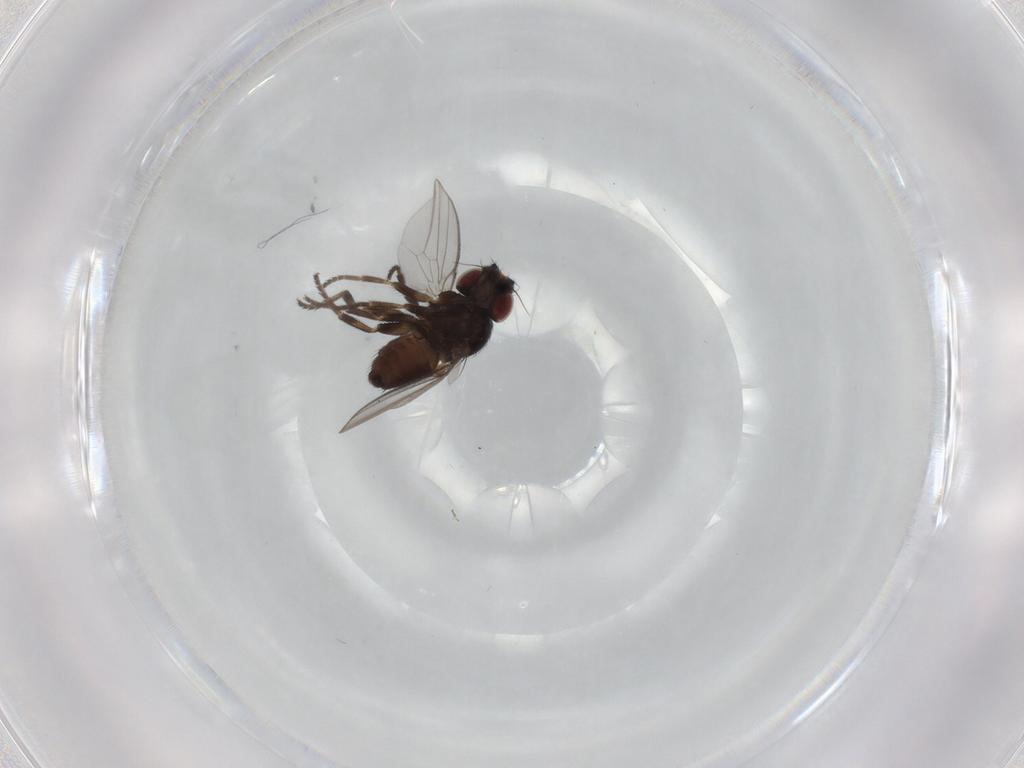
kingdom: Animalia
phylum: Arthropoda
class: Insecta
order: Diptera
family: Milichiidae
